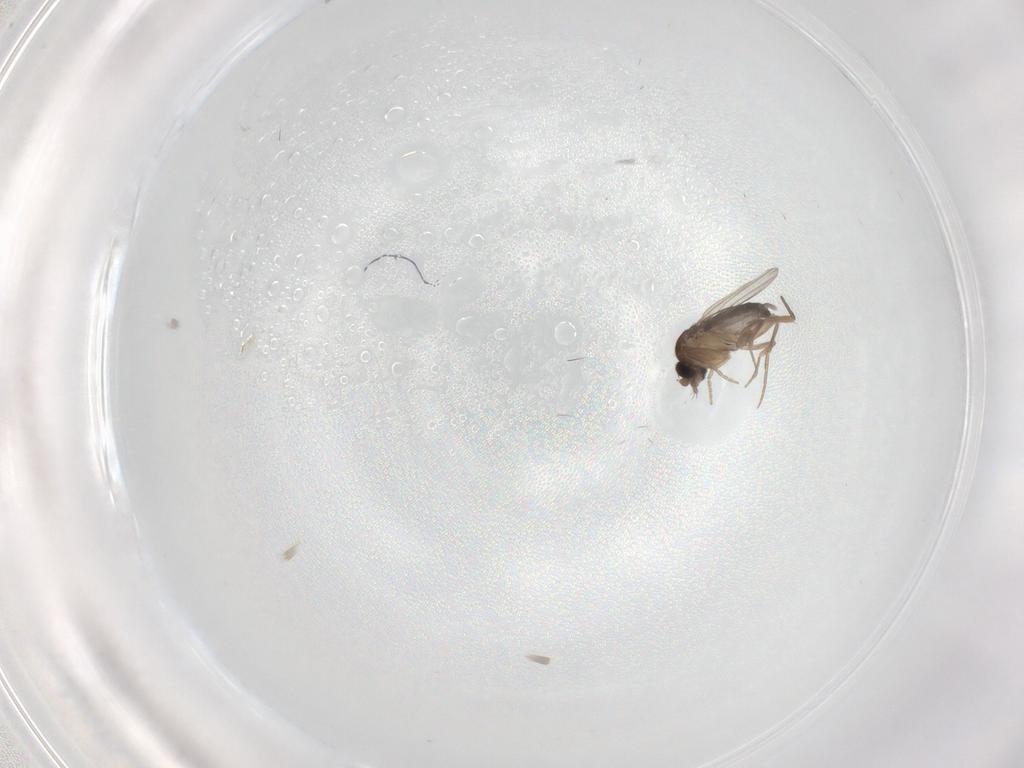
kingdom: Animalia
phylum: Arthropoda
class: Insecta
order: Diptera
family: Phoridae
